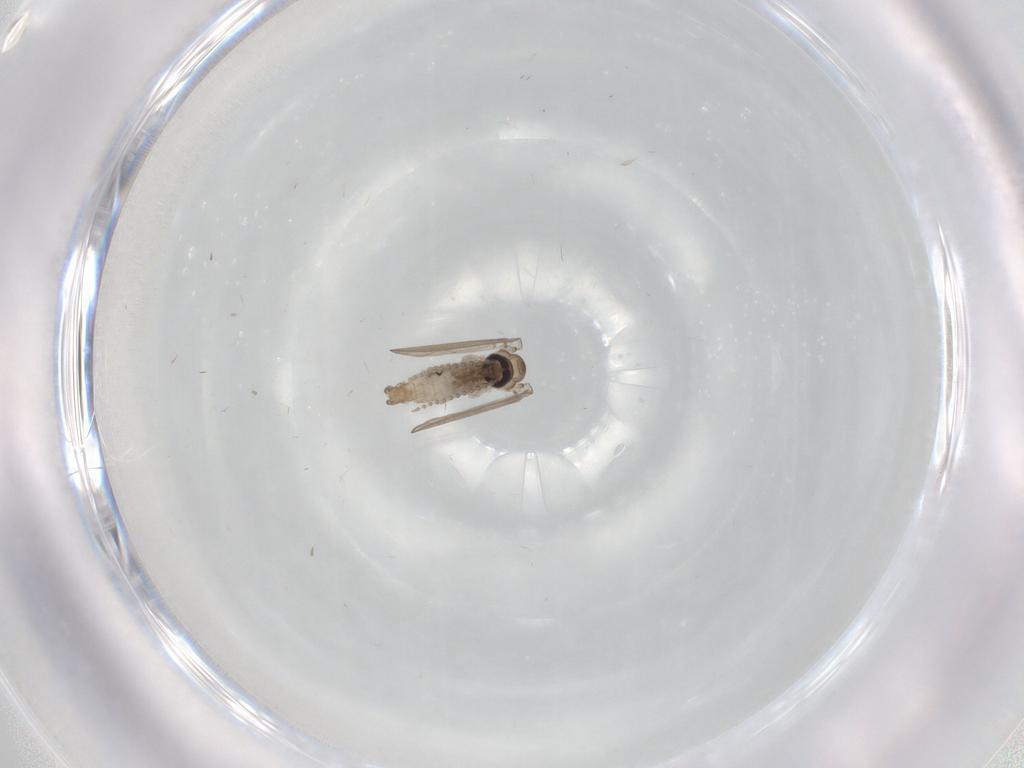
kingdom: Animalia
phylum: Arthropoda
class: Insecta
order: Diptera
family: Psychodidae
